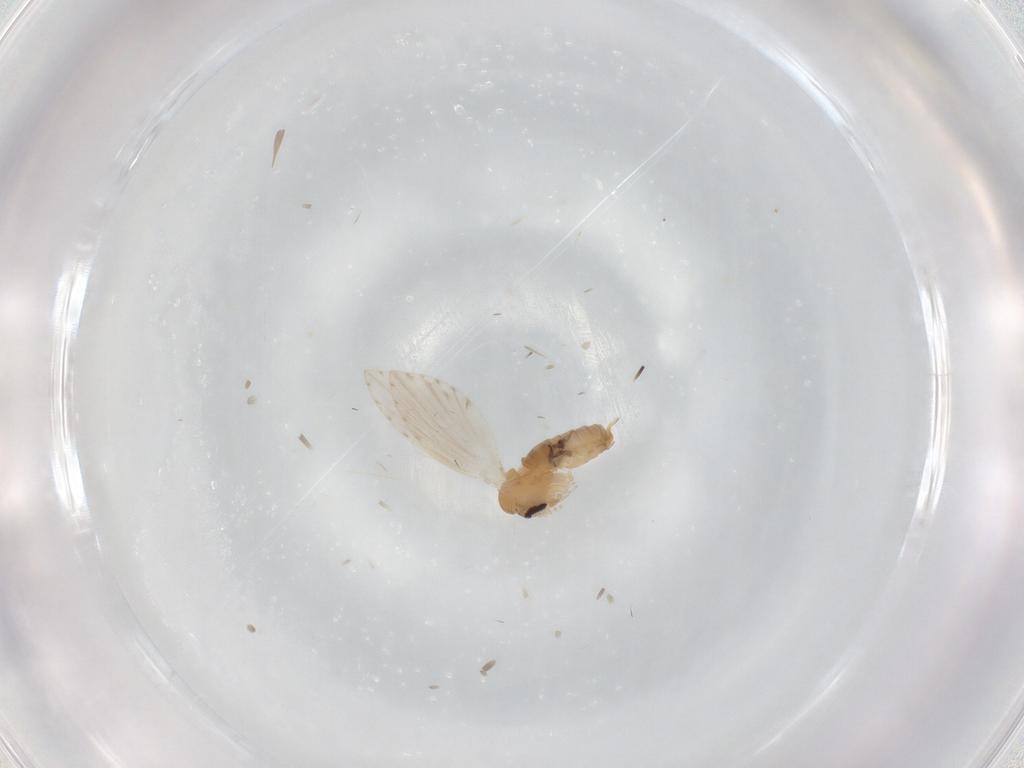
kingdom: Animalia
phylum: Arthropoda
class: Insecta
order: Diptera
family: Psychodidae
